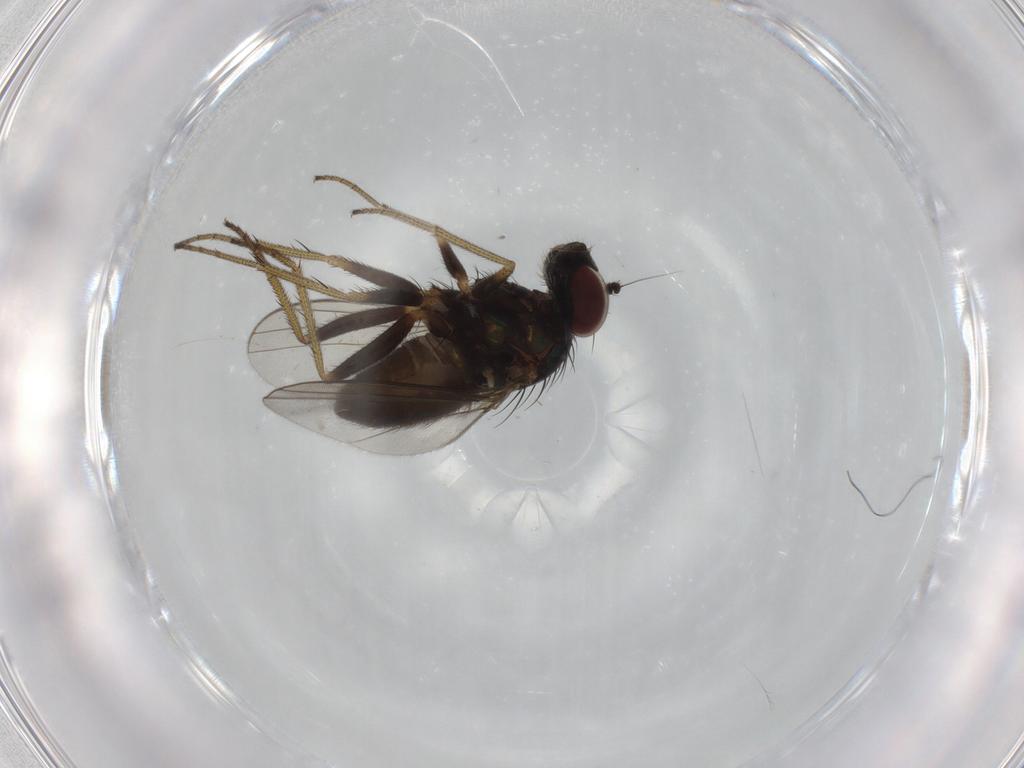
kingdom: Animalia
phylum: Arthropoda
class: Insecta
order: Diptera
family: Dolichopodidae
